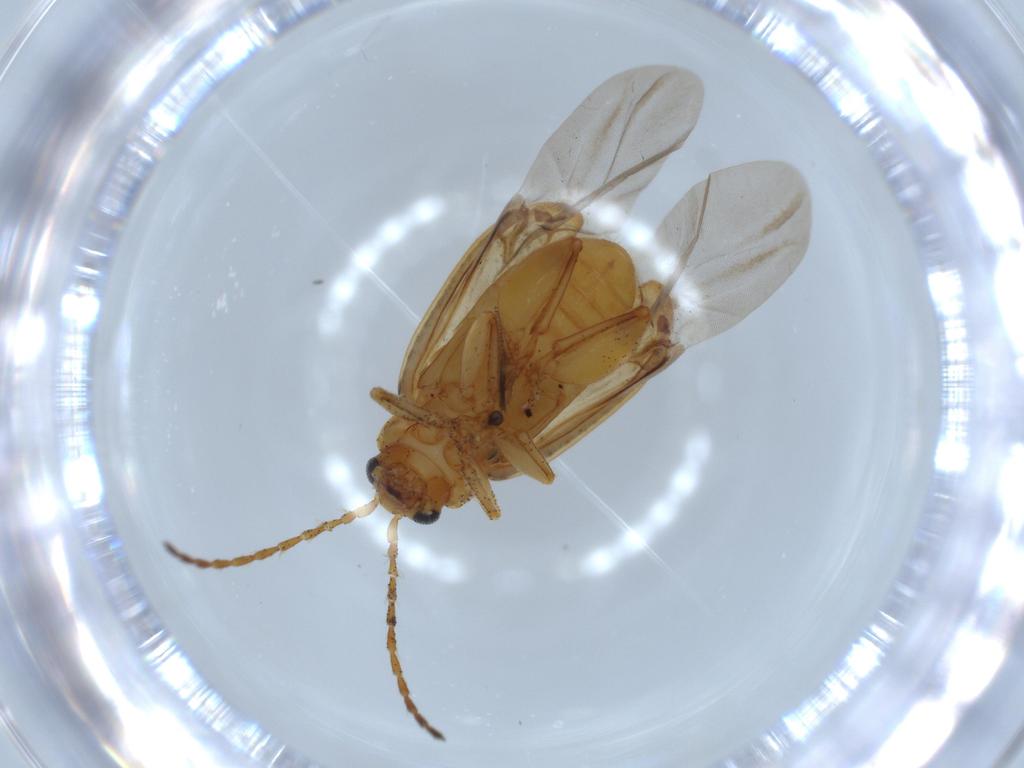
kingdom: Animalia
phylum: Arthropoda
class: Insecta
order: Coleoptera
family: Chrysomelidae
